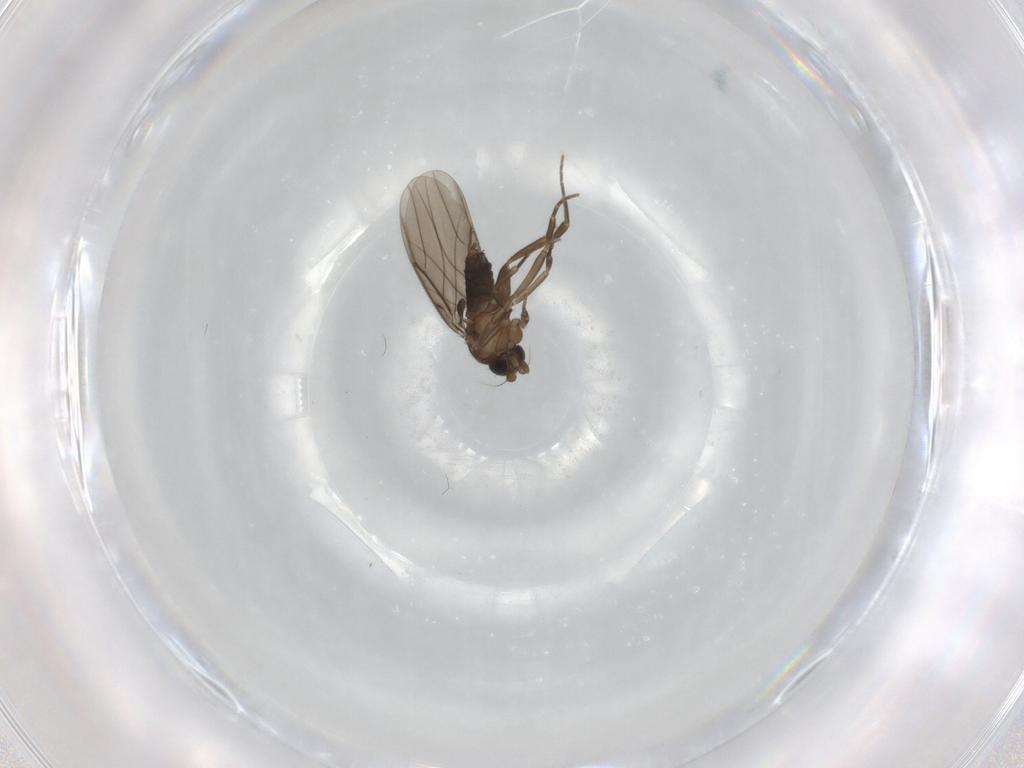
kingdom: Animalia
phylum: Arthropoda
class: Insecta
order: Diptera
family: Phoridae
